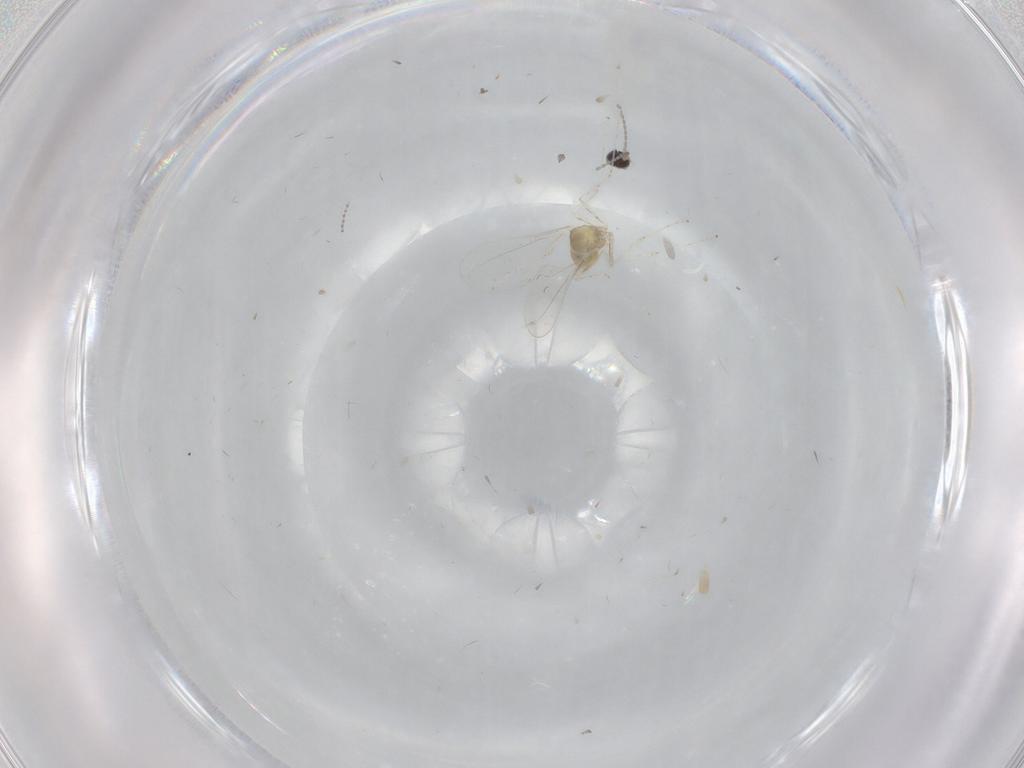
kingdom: Animalia
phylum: Arthropoda
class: Insecta
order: Diptera
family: Cecidomyiidae
